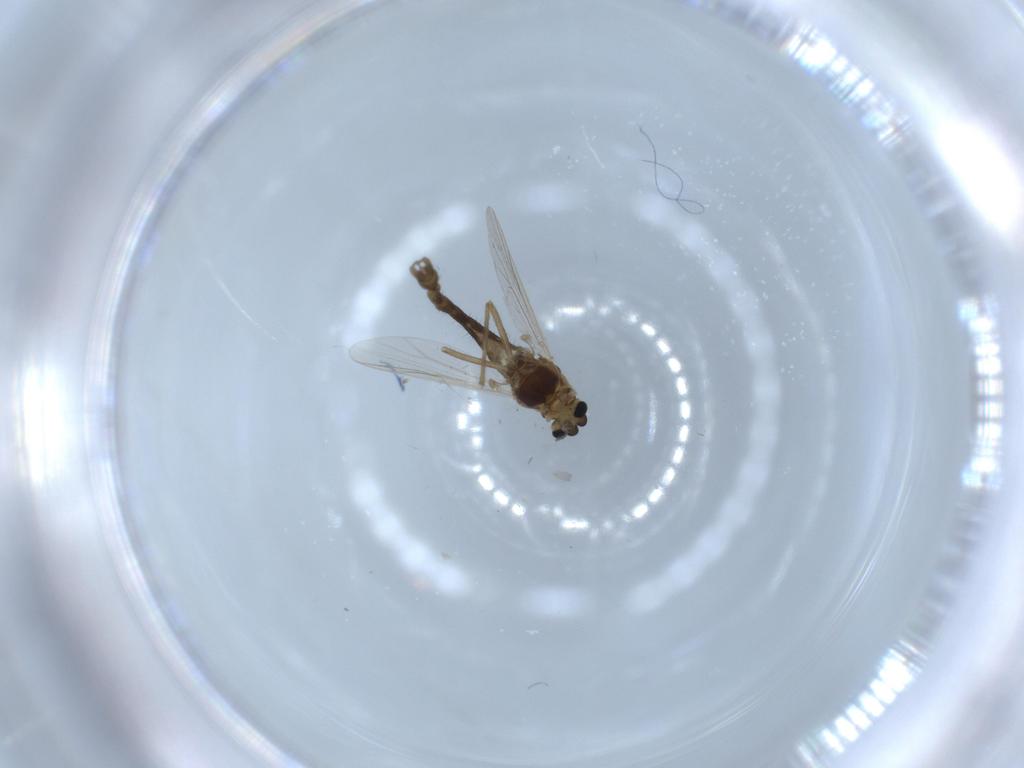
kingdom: Animalia
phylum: Arthropoda
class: Insecta
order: Diptera
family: Chironomidae
